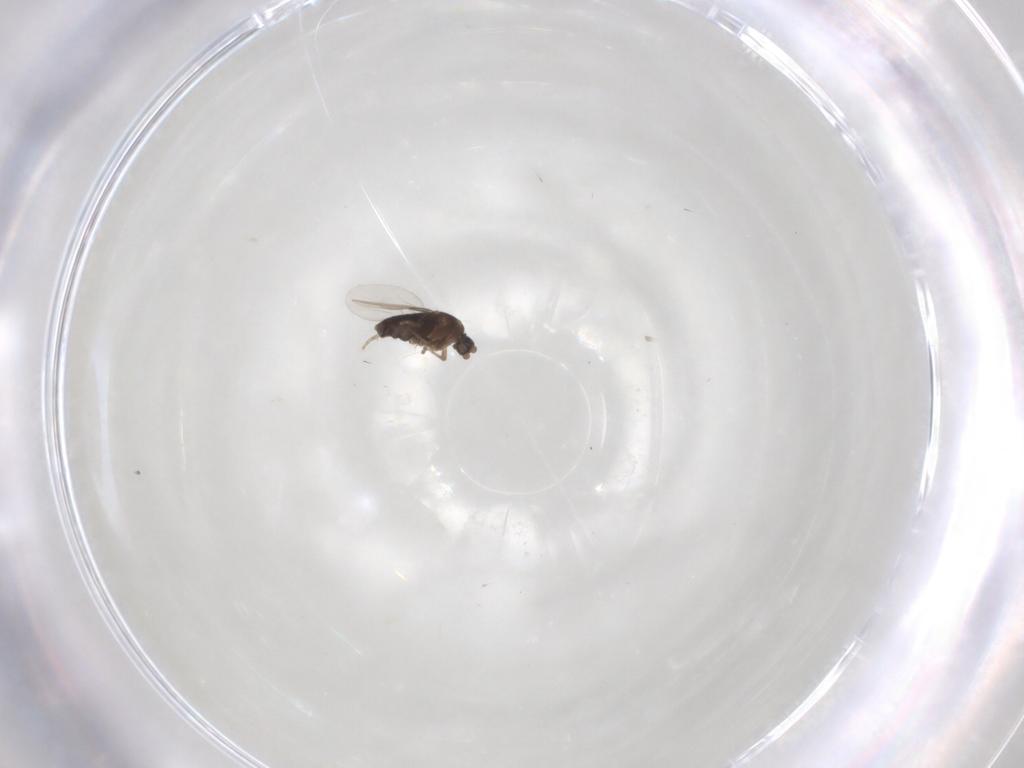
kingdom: Animalia
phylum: Arthropoda
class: Insecta
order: Diptera
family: Phoridae
